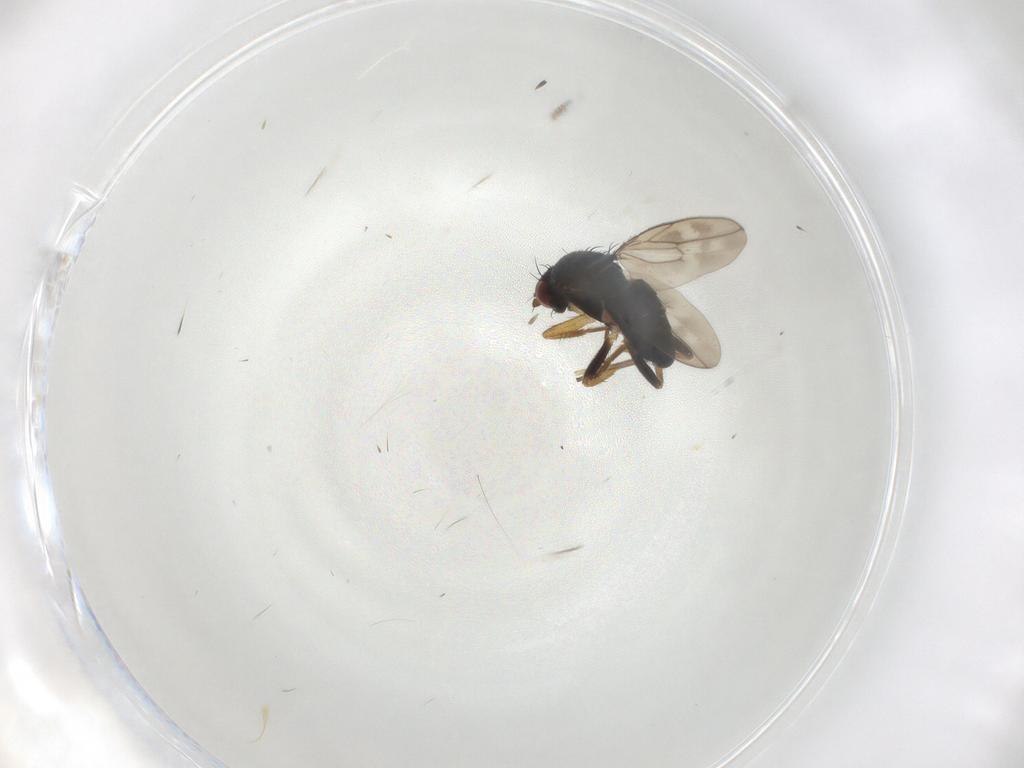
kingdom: Animalia
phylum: Arthropoda
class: Insecta
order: Diptera
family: Sphaeroceridae
